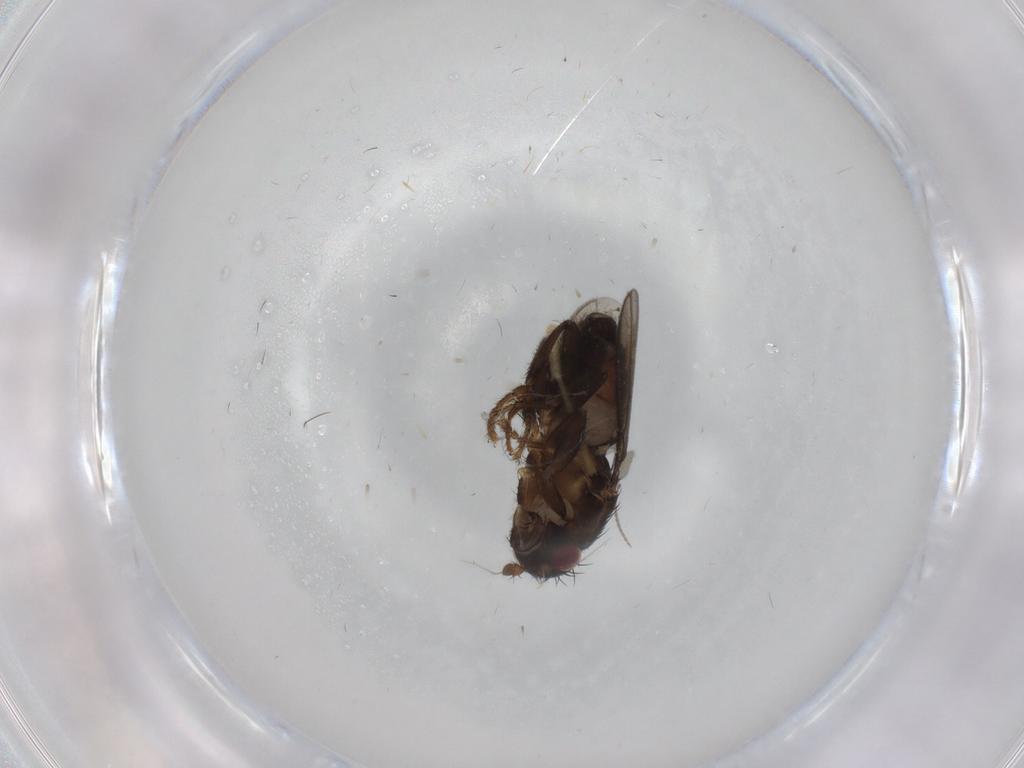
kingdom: Animalia
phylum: Arthropoda
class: Insecta
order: Diptera
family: Sphaeroceridae
